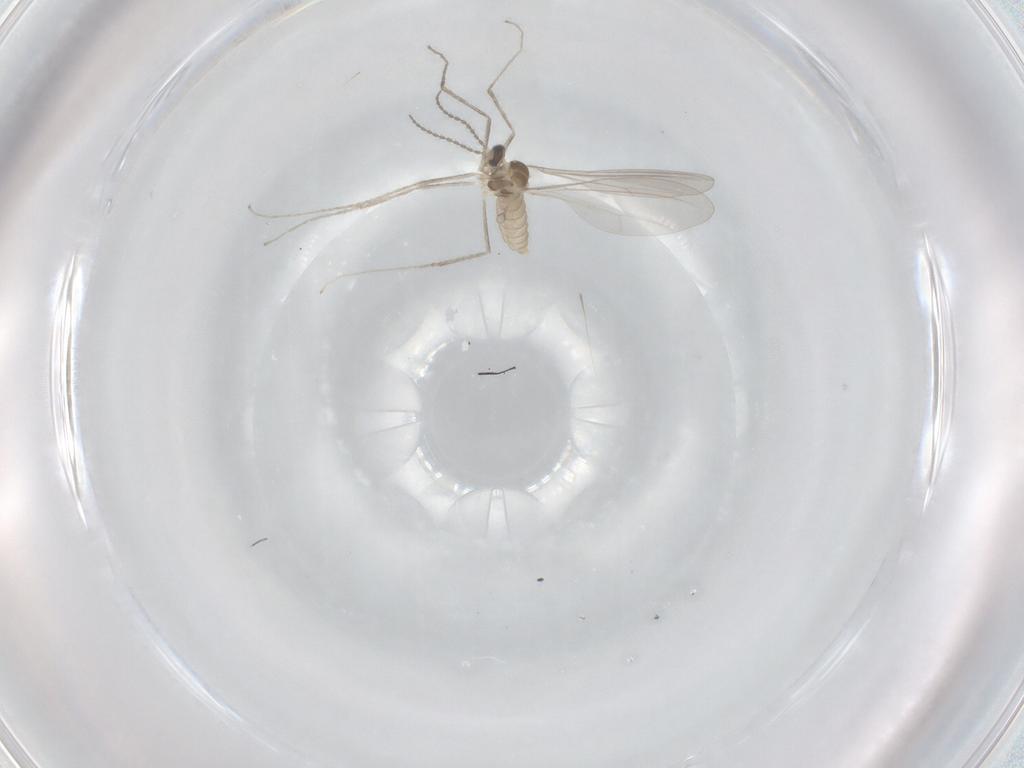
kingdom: Animalia
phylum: Arthropoda
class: Insecta
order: Diptera
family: Cecidomyiidae
